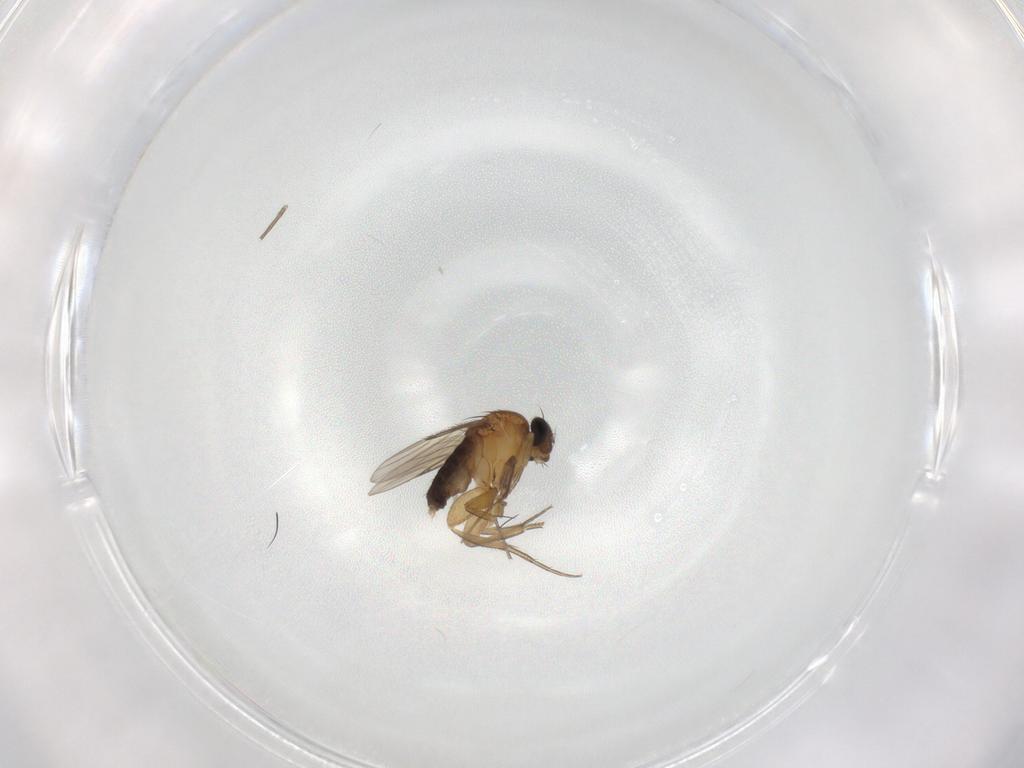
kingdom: Animalia
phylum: Arthropoda
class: Insecta
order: Diptera
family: Phoridae
